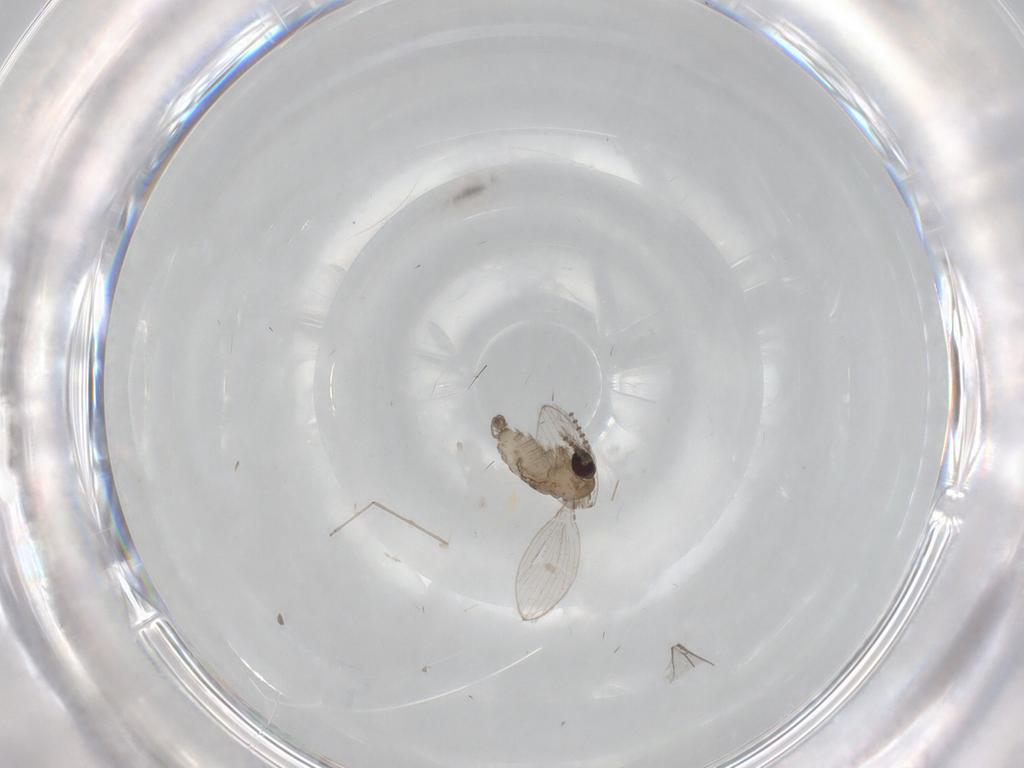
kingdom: Animalia
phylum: Arthropoda
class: Insecta
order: Diptera
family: Psychodidae
